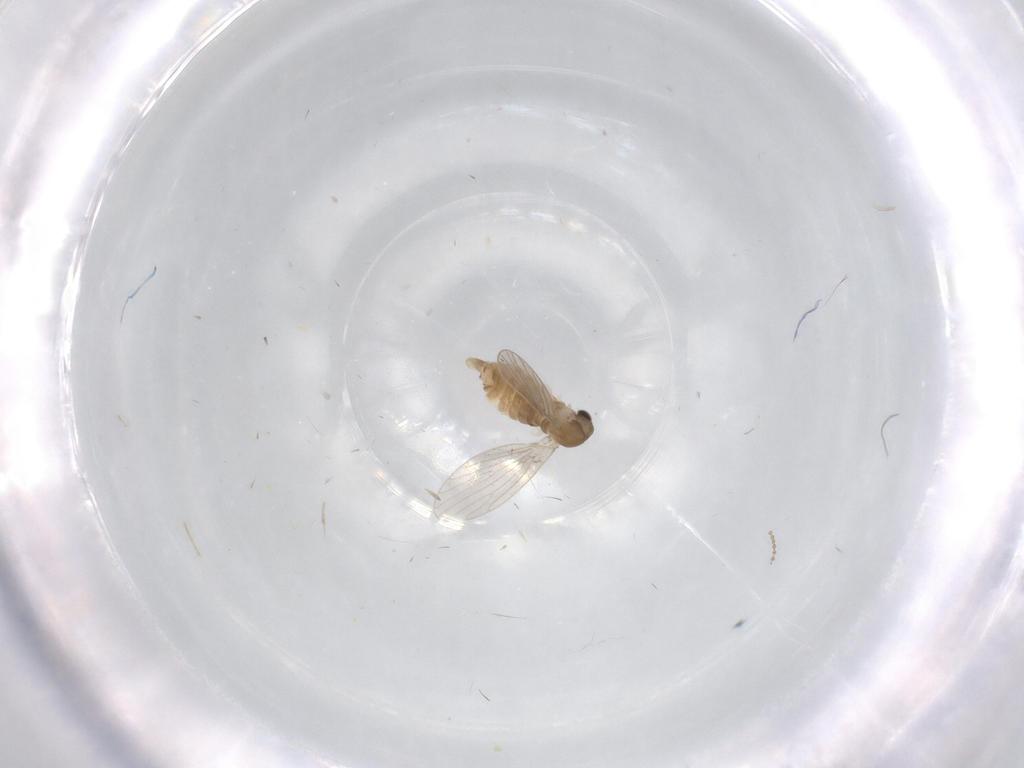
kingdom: Animalia
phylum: Arthropoda
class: Insecta
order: Diptera
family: Psychodidae
